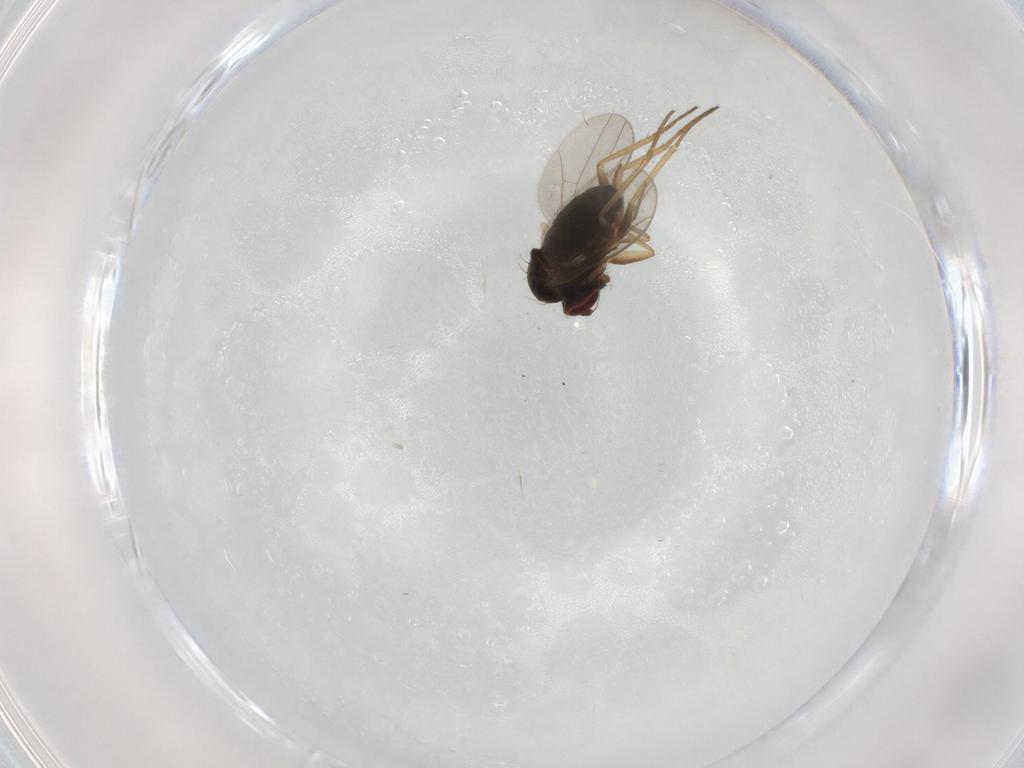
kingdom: Animalia
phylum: Arthropoda
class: Insecta
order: Diptera
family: Dolichopodidae
